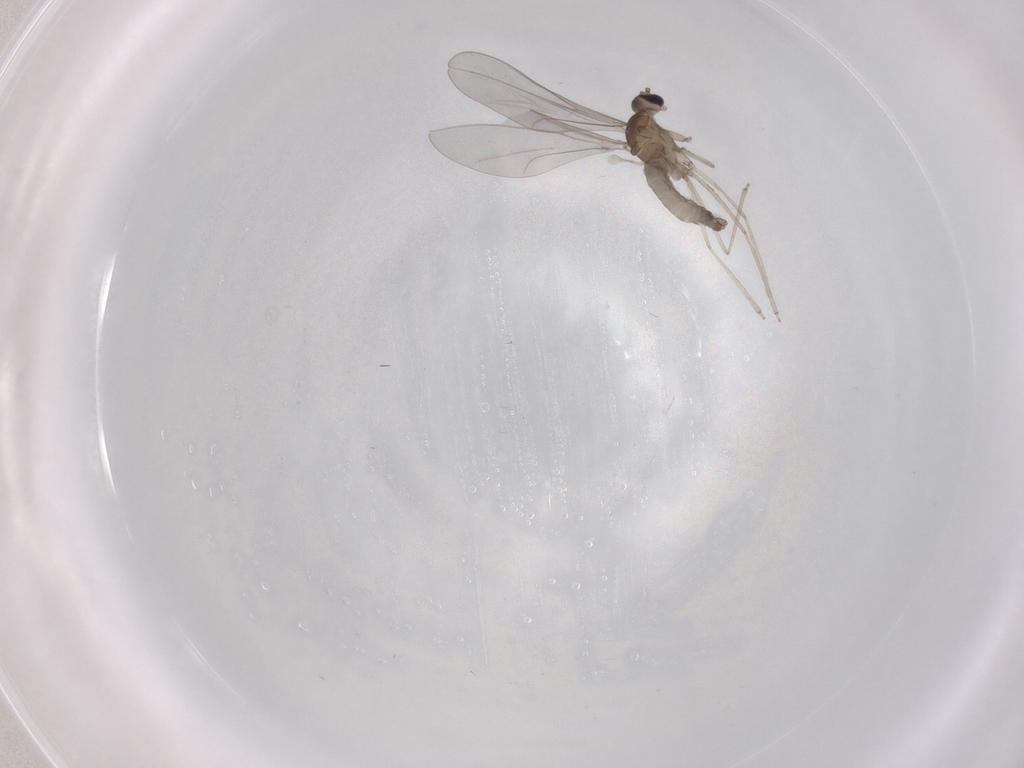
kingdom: Animalia
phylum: Arthropoda
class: Insecta
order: Diptera
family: Cecidomyiidae
